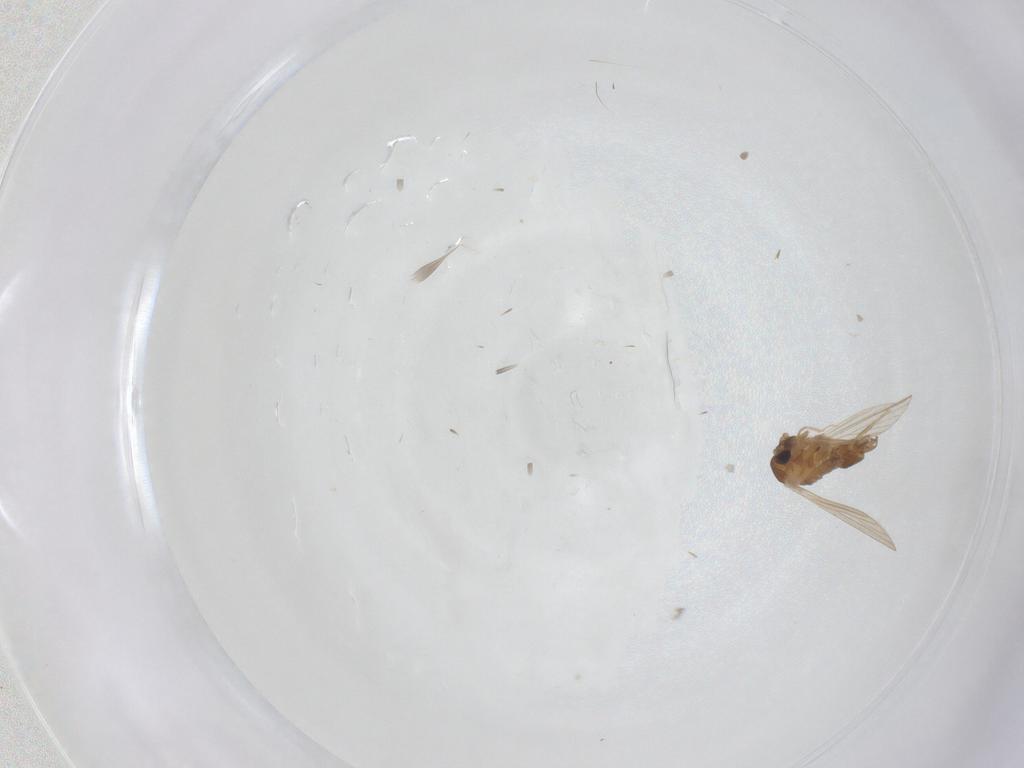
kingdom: Animalia
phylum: Arthropoda
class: Insecta
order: Diptera
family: Psychodidae
